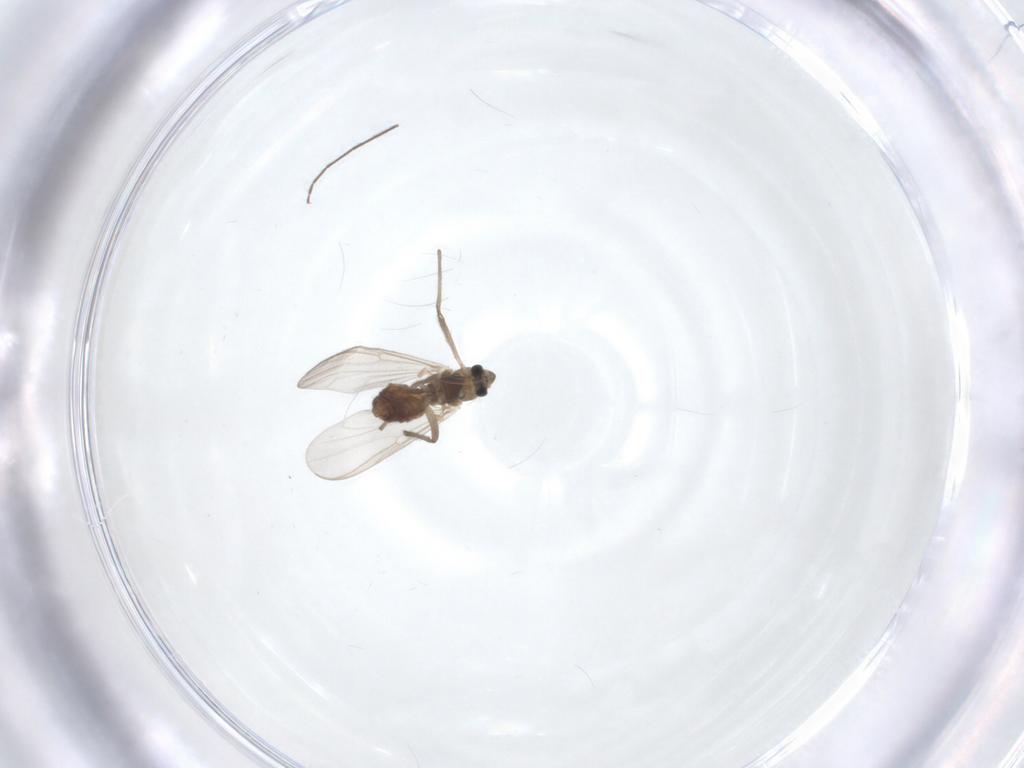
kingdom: Animalia
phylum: Arthropoda
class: Insecta
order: Diptera
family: Chironomidae
